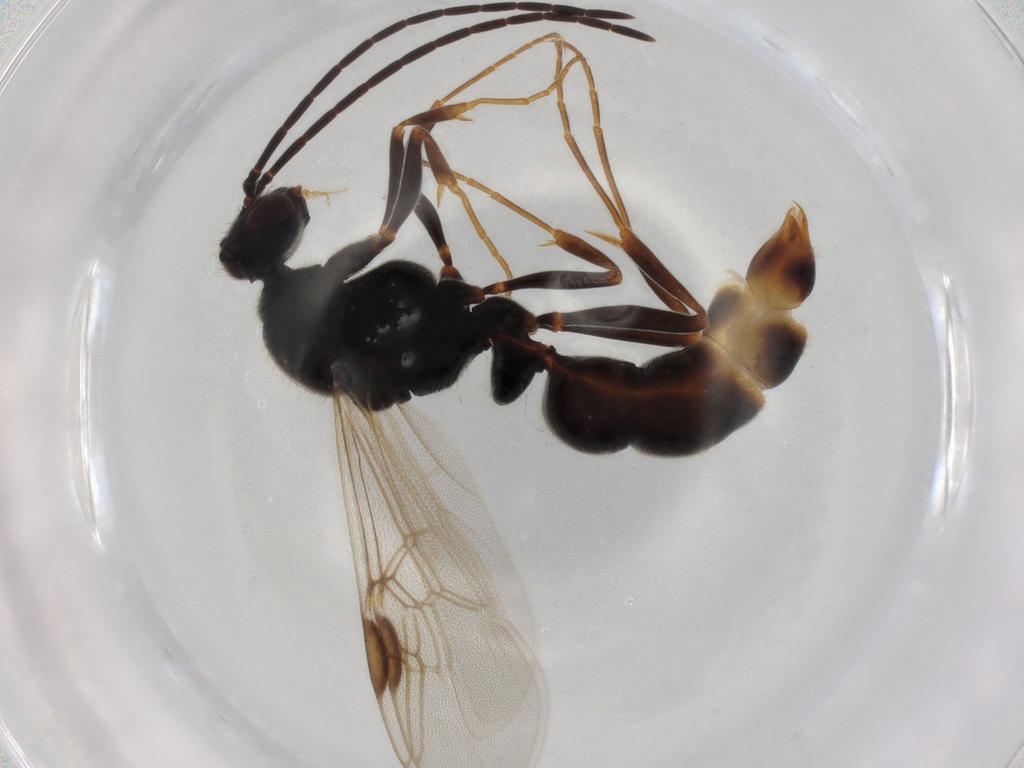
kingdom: Animalia
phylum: Arthropoda
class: Insecta
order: Hymenoptera
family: Formicidae
